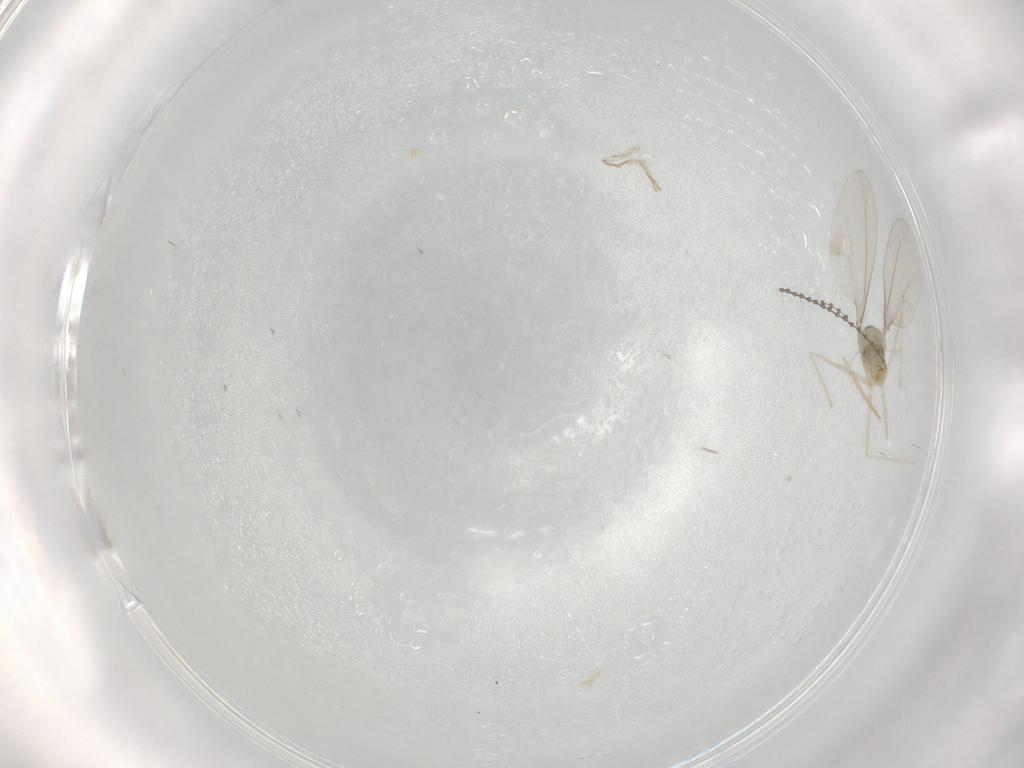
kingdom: Animalia
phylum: Arthropoda
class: Insecta
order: Diptera
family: Cecidomyiidae
